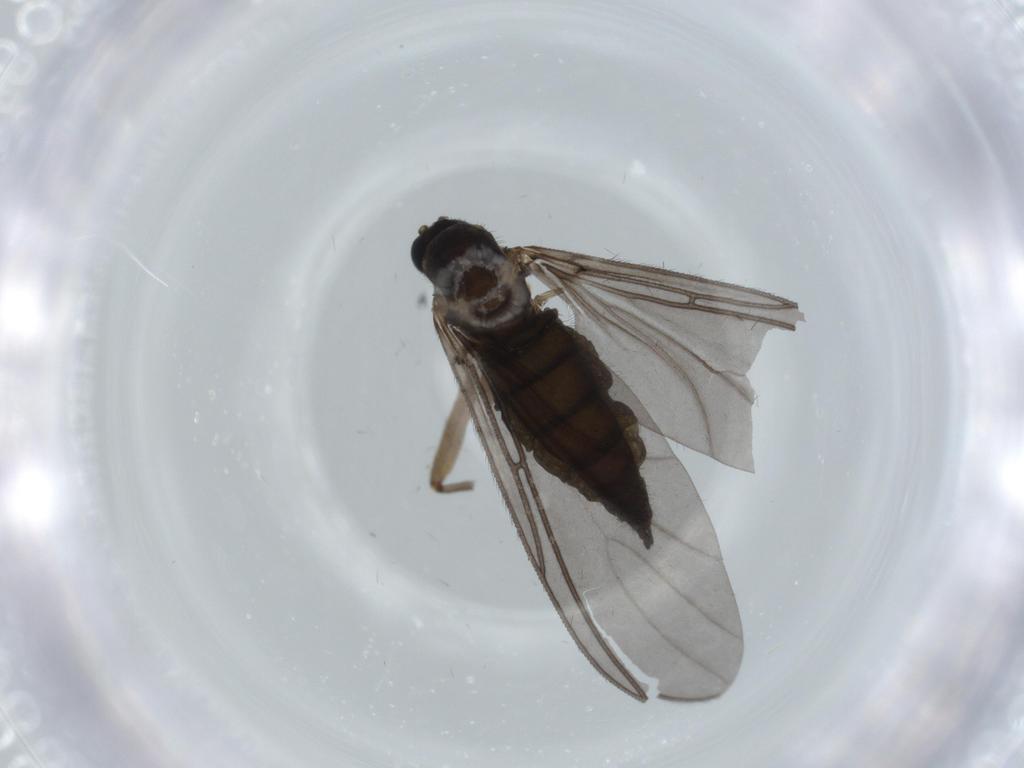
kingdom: Animalia
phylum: Arthropoda
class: Insecta
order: Diptera
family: Sciaridae
